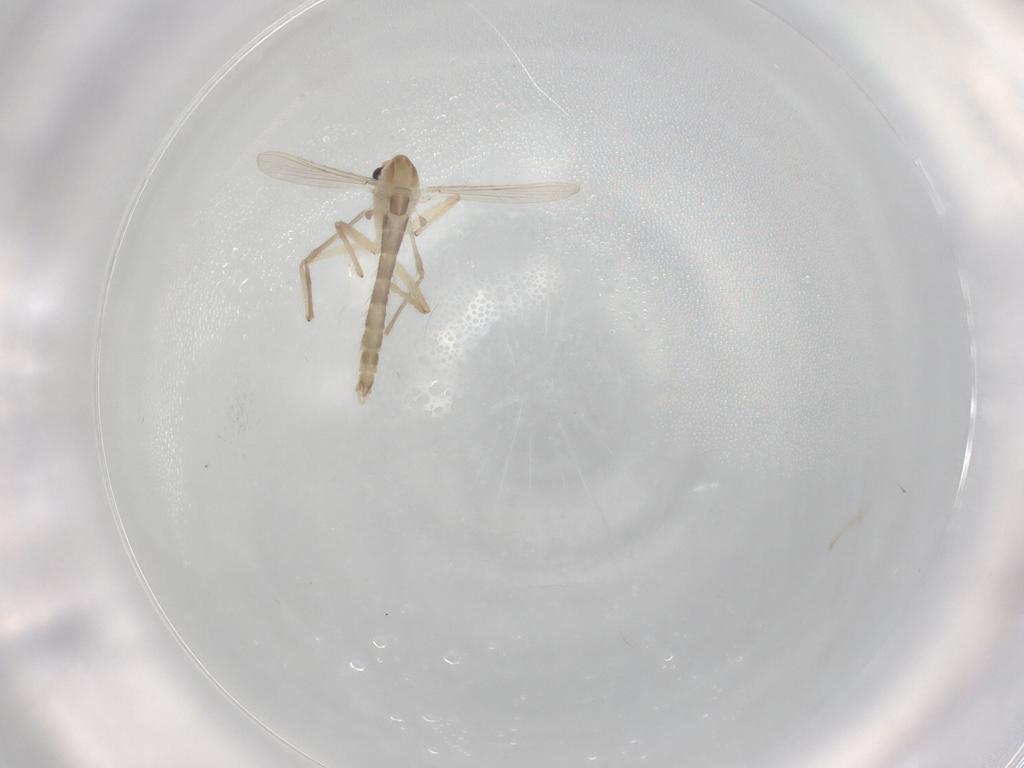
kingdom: Animalia
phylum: Arthropoda
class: Insecta
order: Diptera
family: Chironomidae
